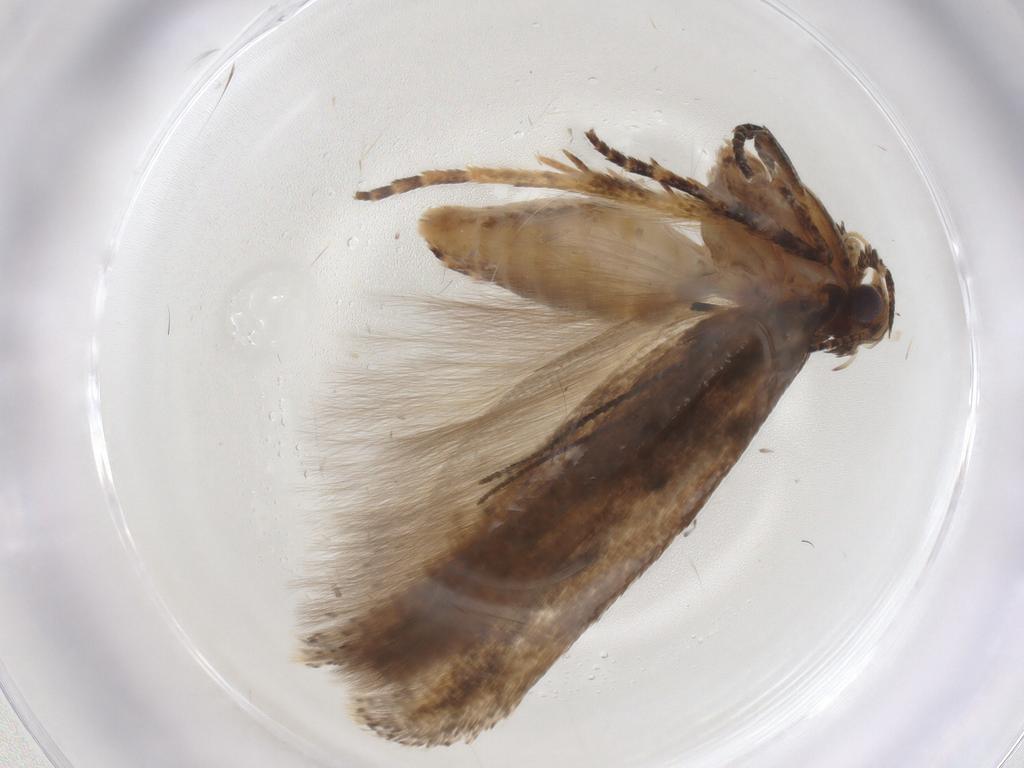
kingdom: Animalia
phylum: Arthropoda
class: Insecta
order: Lepidoptera
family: Gelechiidae
